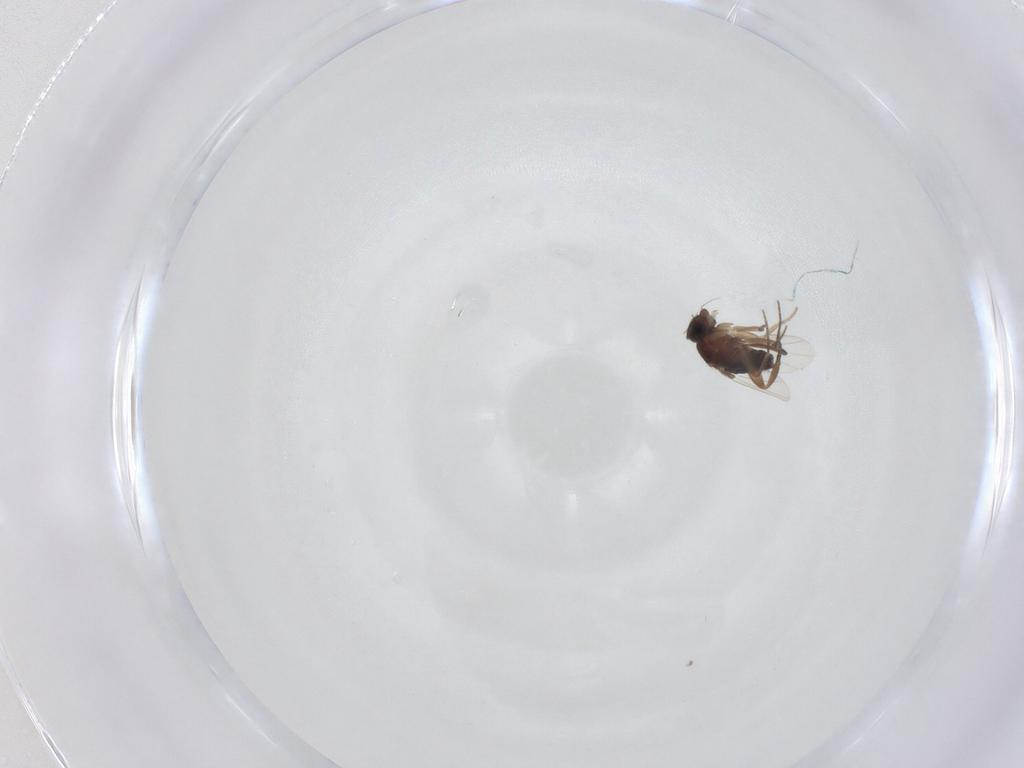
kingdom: Animalia
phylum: Arthropoda
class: Insecta
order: Diptera
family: Phoridae
